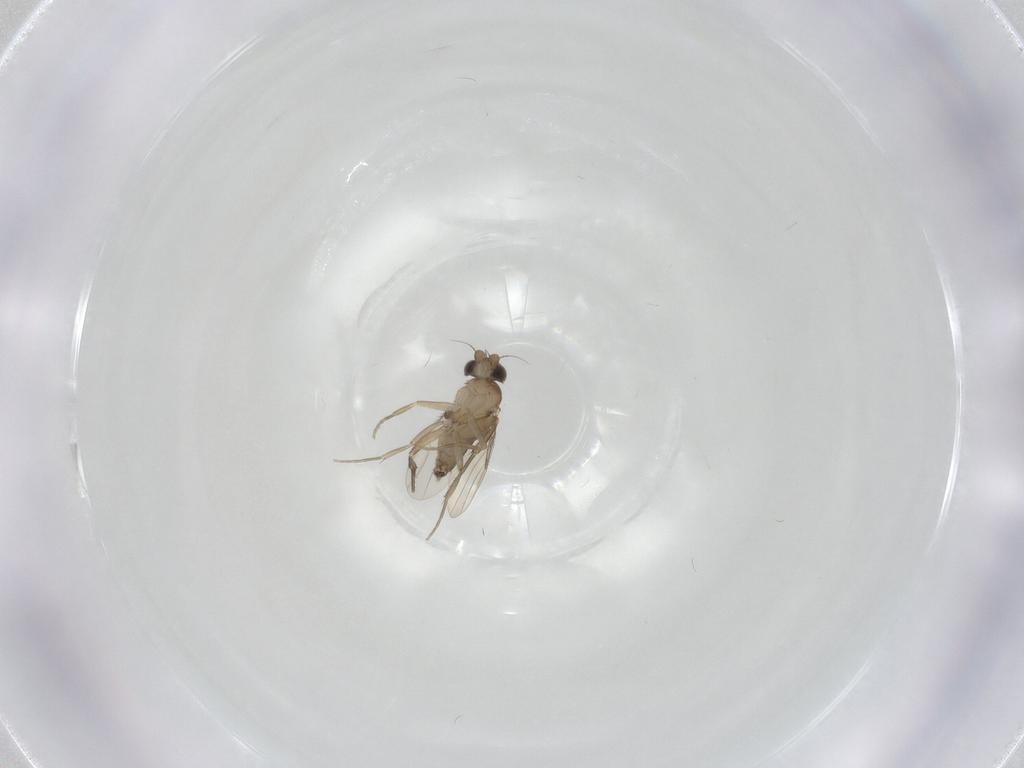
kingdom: Animalia
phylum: Arthropoda
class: Insecta
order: Diptera
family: Phoridae
